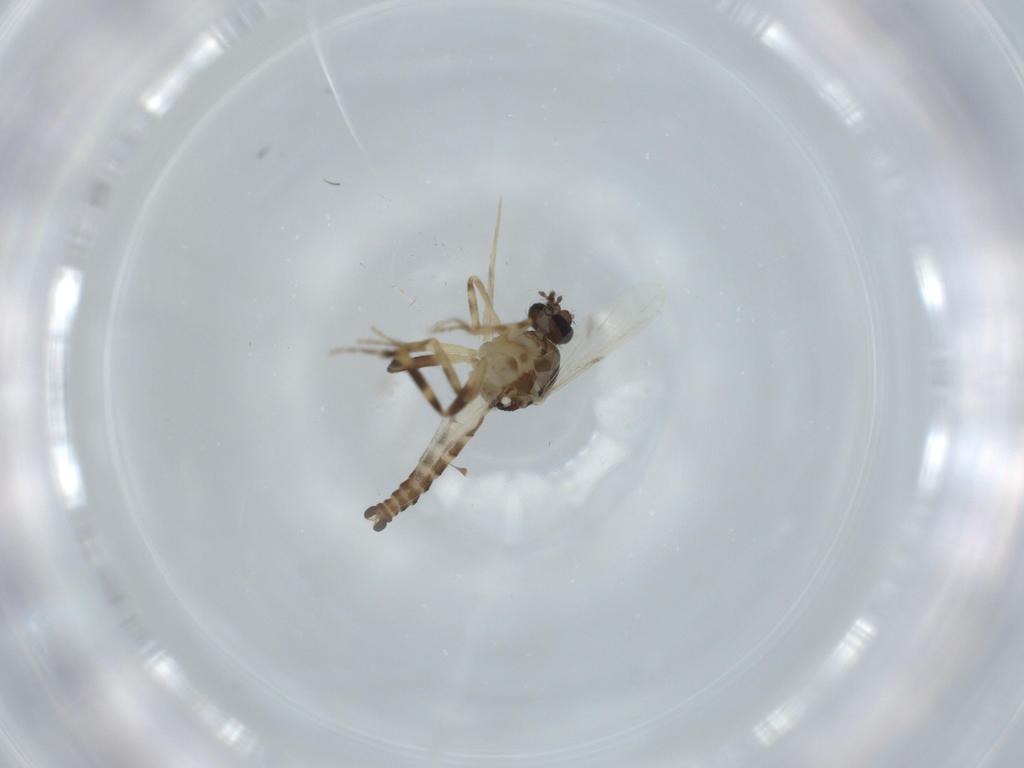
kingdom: Animalia
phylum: Arthropoda
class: Insecta
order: Diptera
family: Ceratopogonidae
